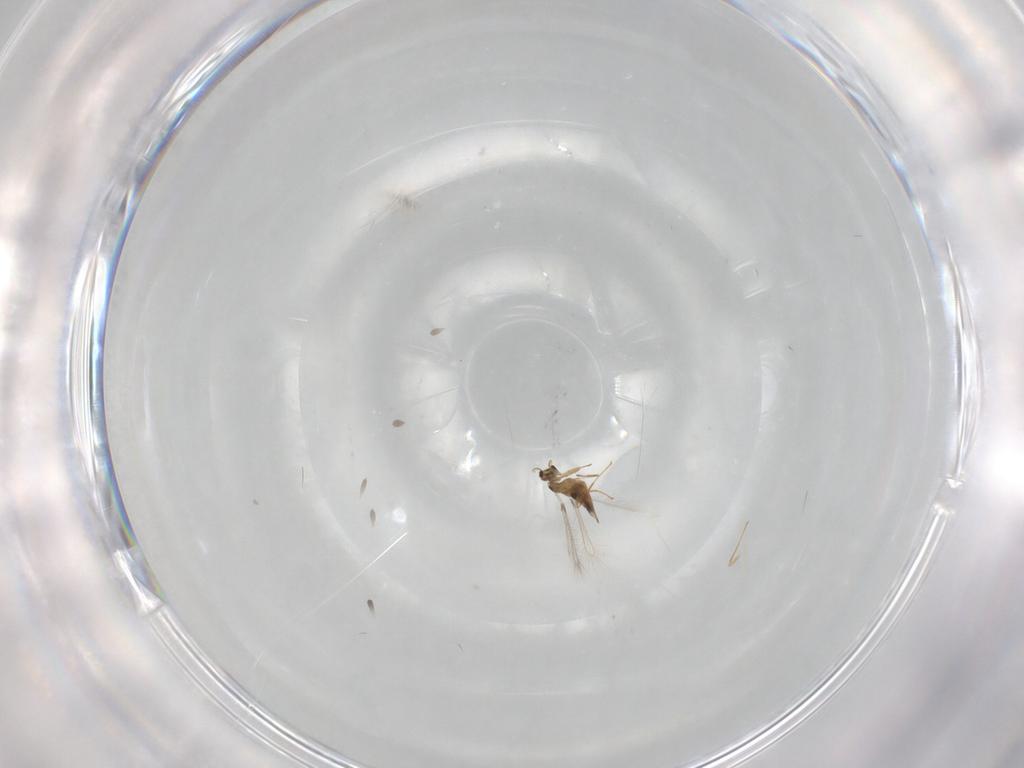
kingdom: Animalia
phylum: Arthropoda
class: Insecta
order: Hymenoptera
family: Mymaridae
